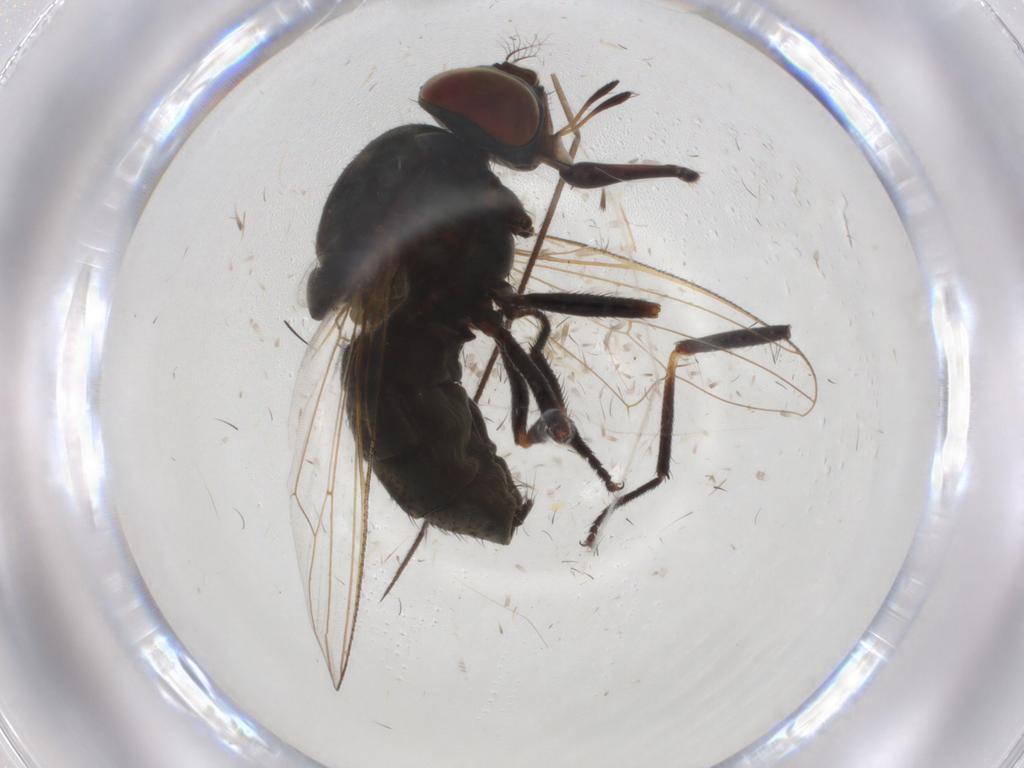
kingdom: Animalia
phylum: Arthropoda
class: Insecta
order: Diptera
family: Muscidae
